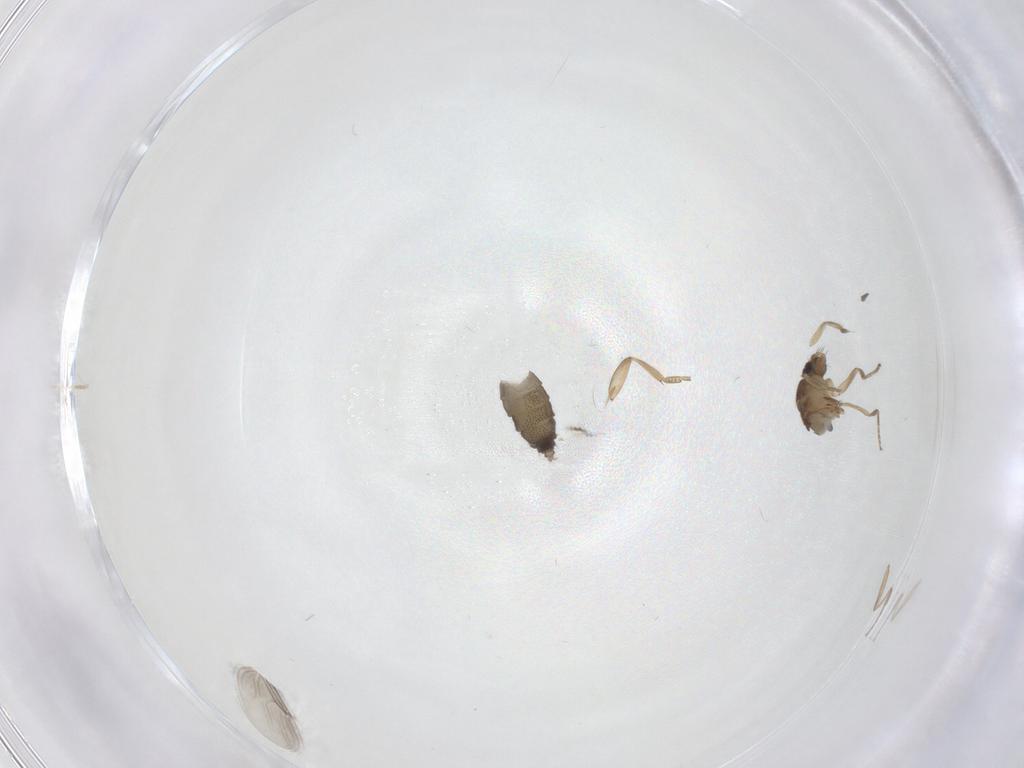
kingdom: Animalia
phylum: Arthropoda
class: Insecta
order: Diptera
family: Phoridae
